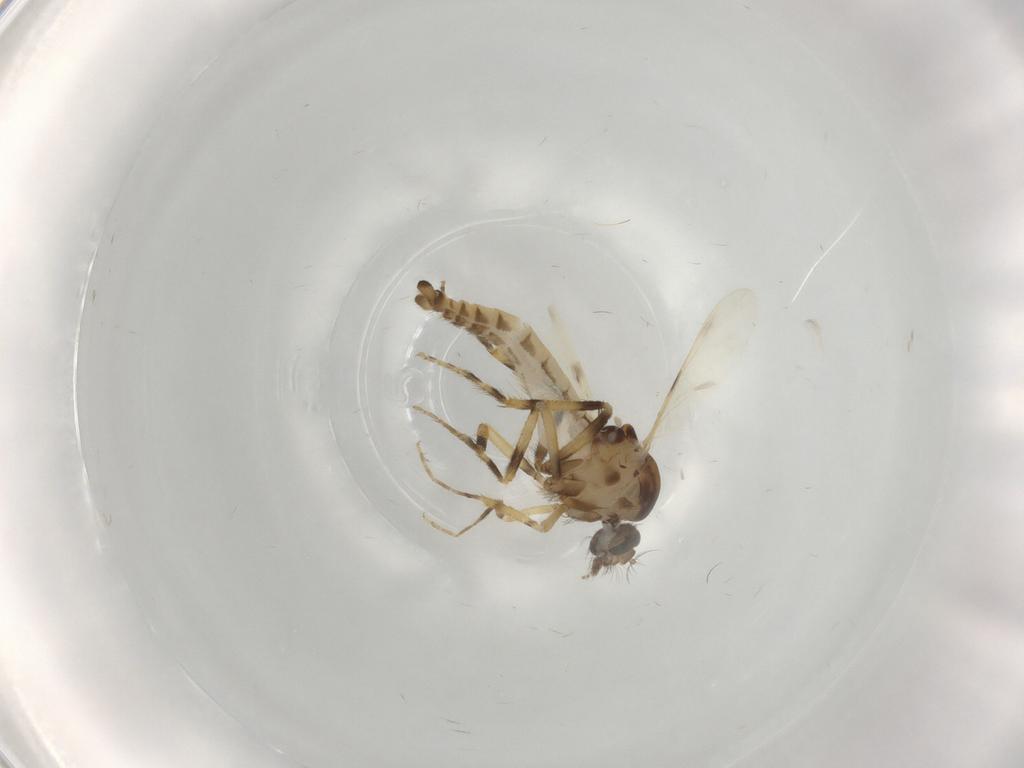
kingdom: Animalia
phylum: Arthropoda
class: Insecta
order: Diptera
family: Ceratopogonidae
